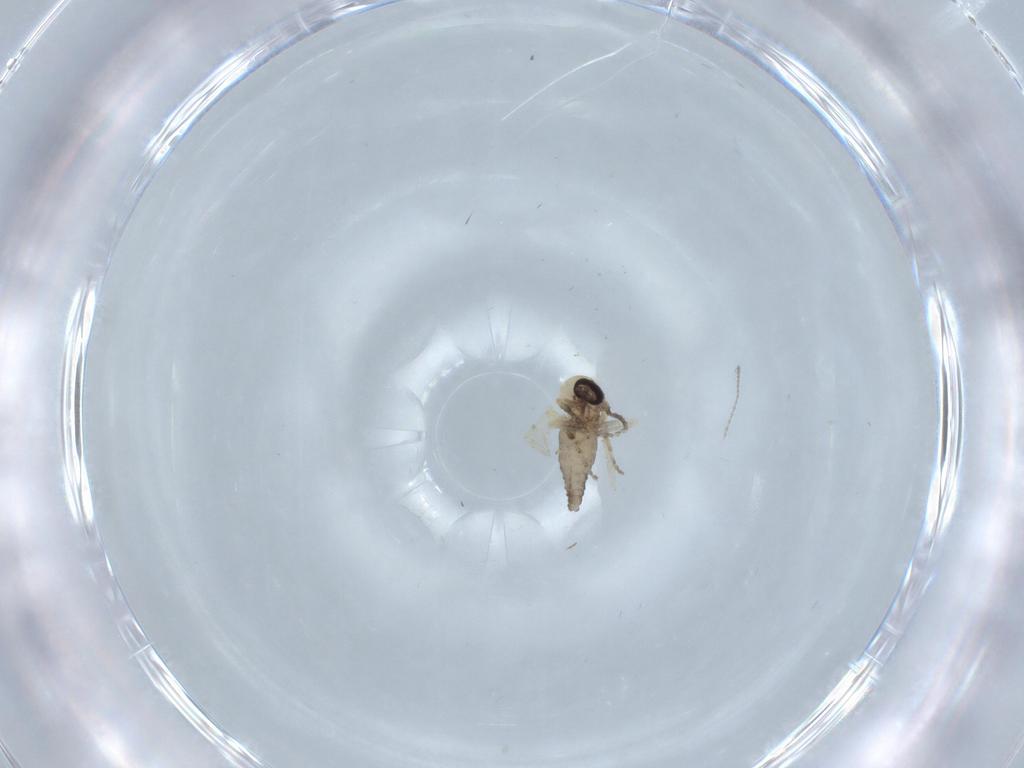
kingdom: Animalia
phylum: Arthropoda
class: Insecta
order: Diptera
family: Ceratopogonidae
